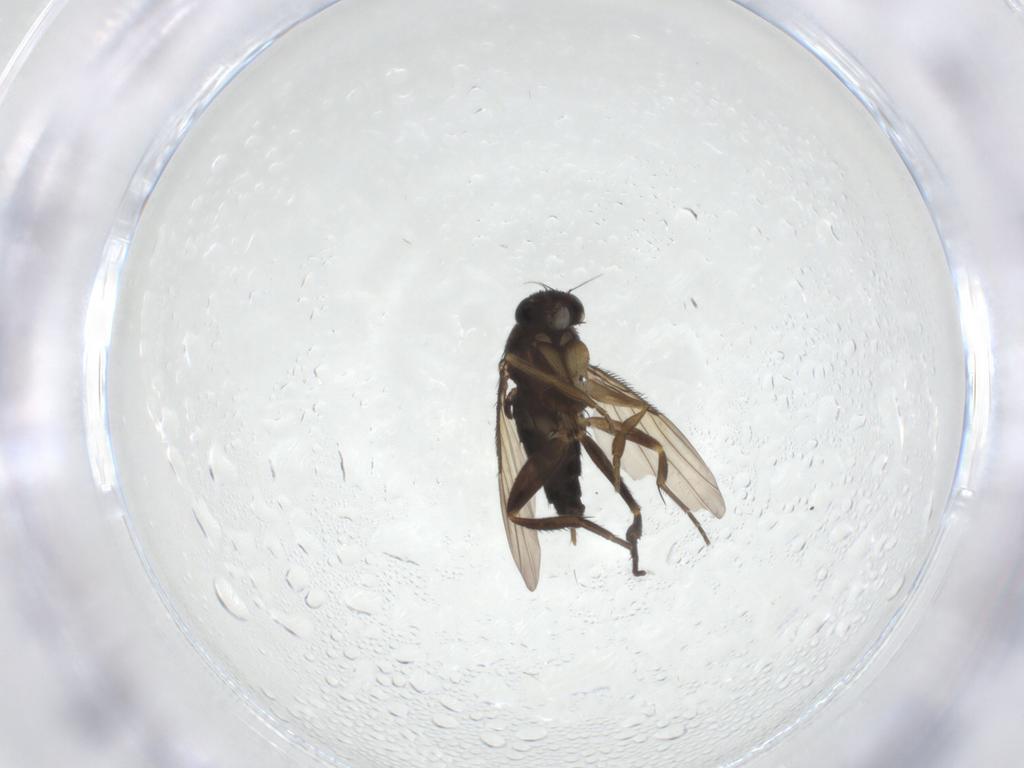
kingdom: Animalia
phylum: Arthropoda
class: Insecta
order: Diptera
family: Phoridae
